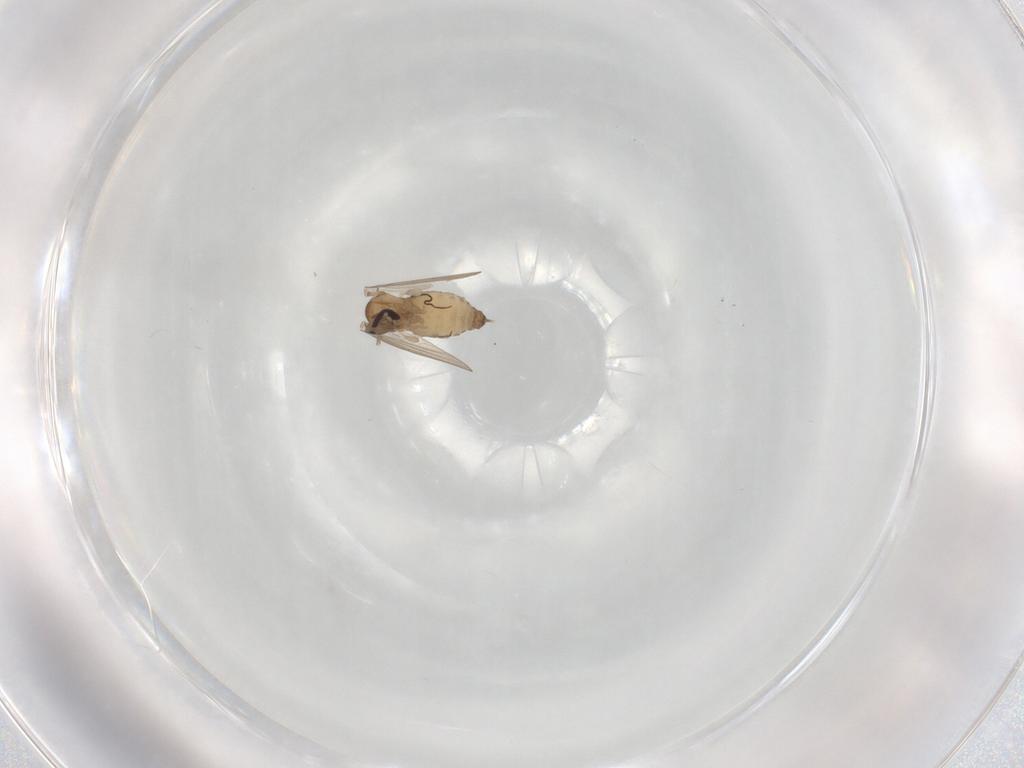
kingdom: Animalia
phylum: Arthropoda
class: Insecta
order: Diptera
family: Psychodidae
